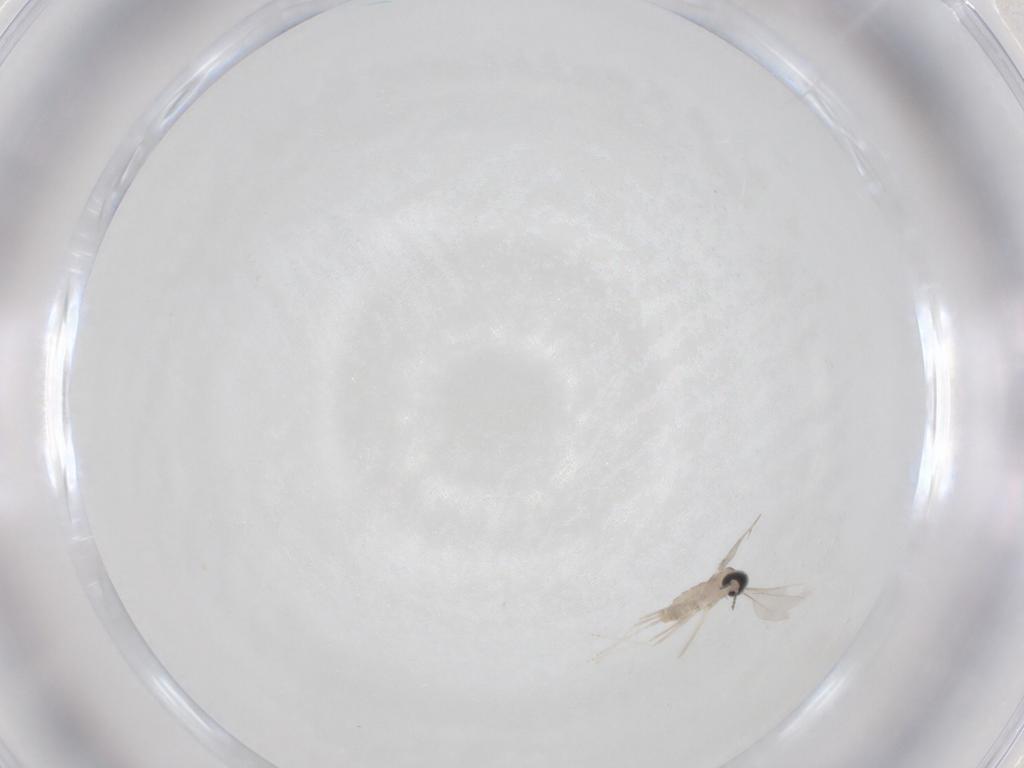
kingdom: Animalia
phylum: Arthropoda
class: Insecta
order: Diptera
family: Cecidomyiidae
